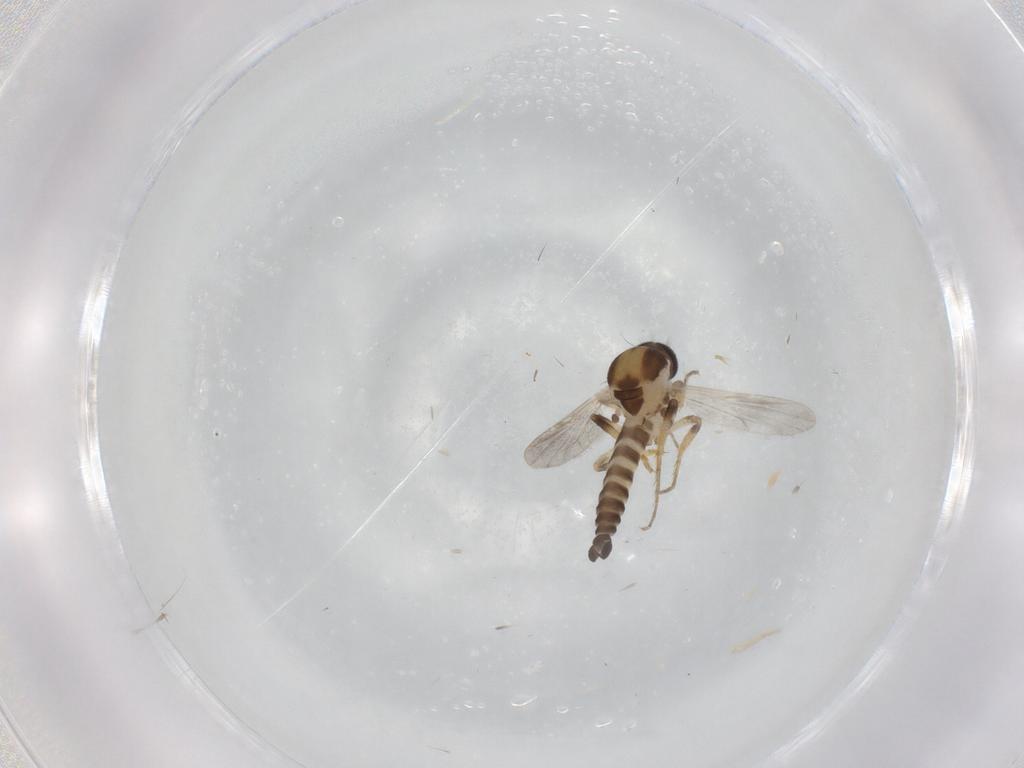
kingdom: Animalia
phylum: Arthropoda
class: Insecta
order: Diptera
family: Ceratopogonidae
